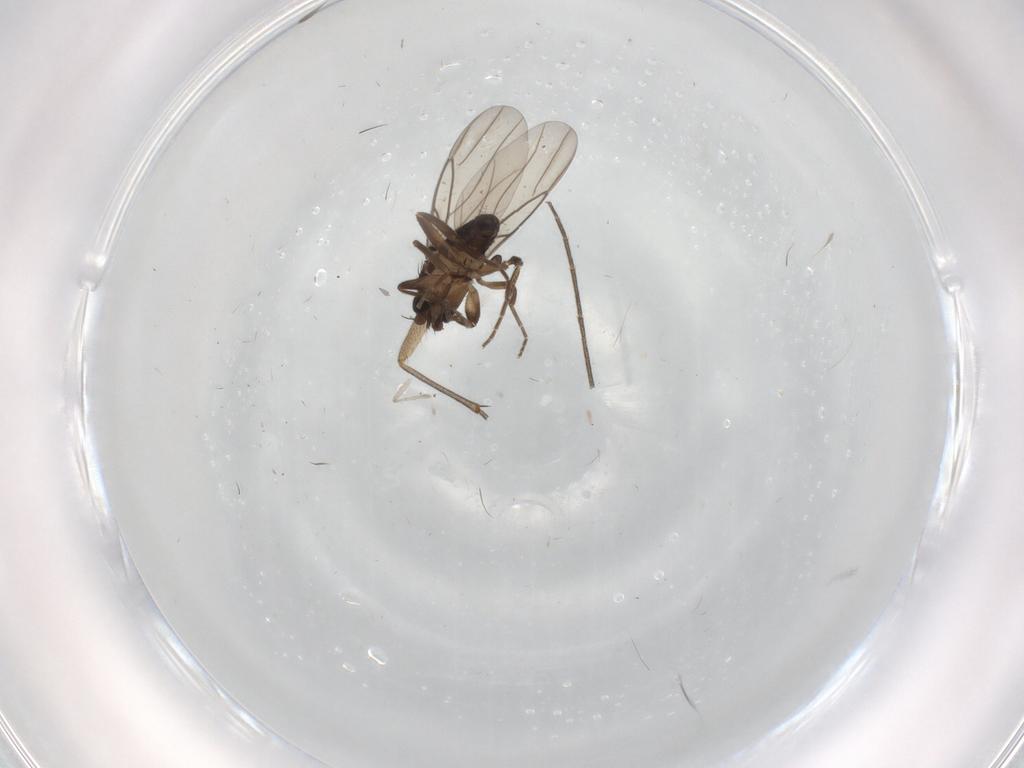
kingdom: Animalia
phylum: Arthropoda
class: Insecta
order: Diptera
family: Mycetophilidae
